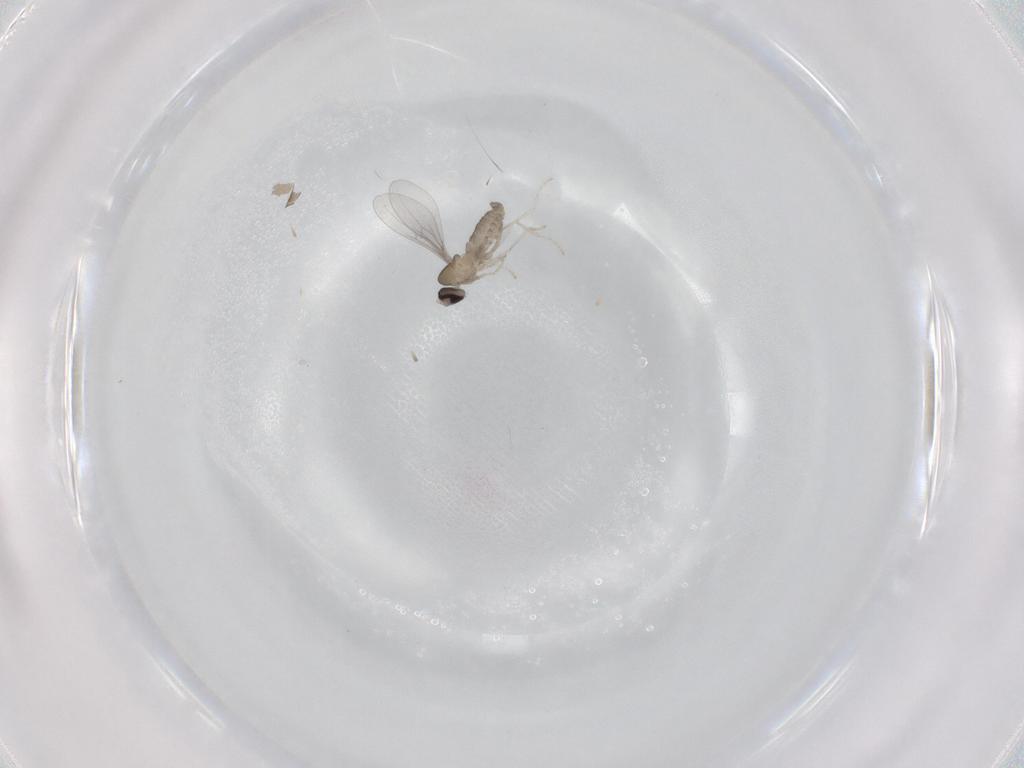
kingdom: Animalia
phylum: Arthropoda
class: Insecta
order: Diptera
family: Cecidomyiidae
